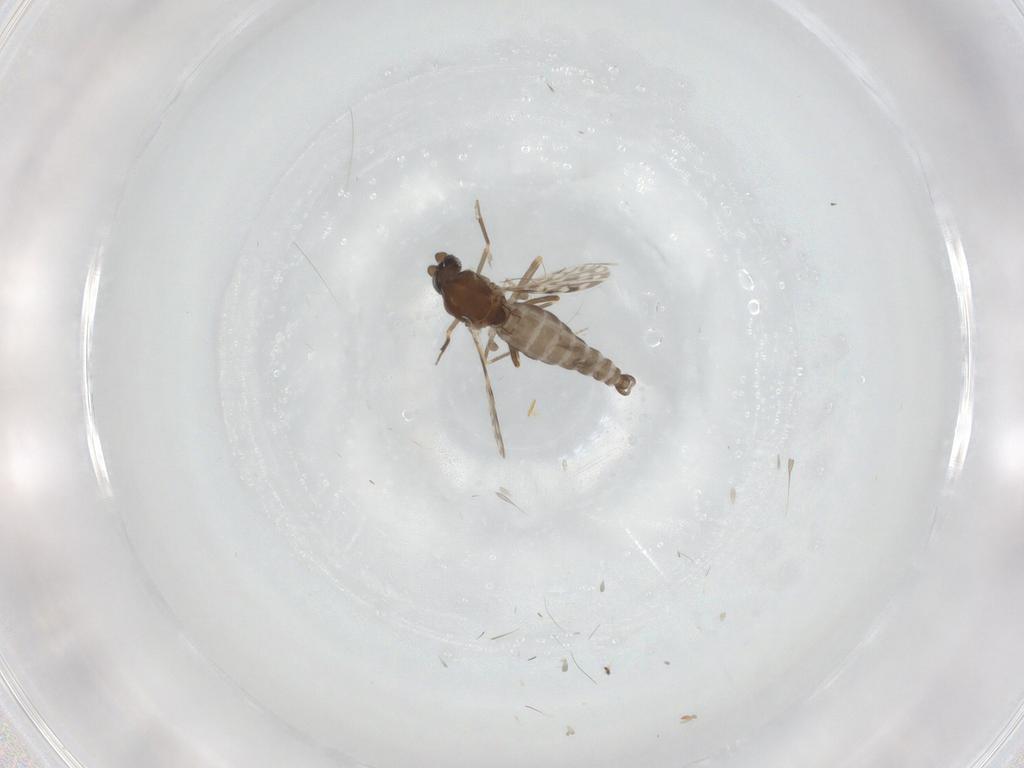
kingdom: Animalia
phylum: Arthropoda
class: Insecta
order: Diptera
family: Ceratopogonidae
